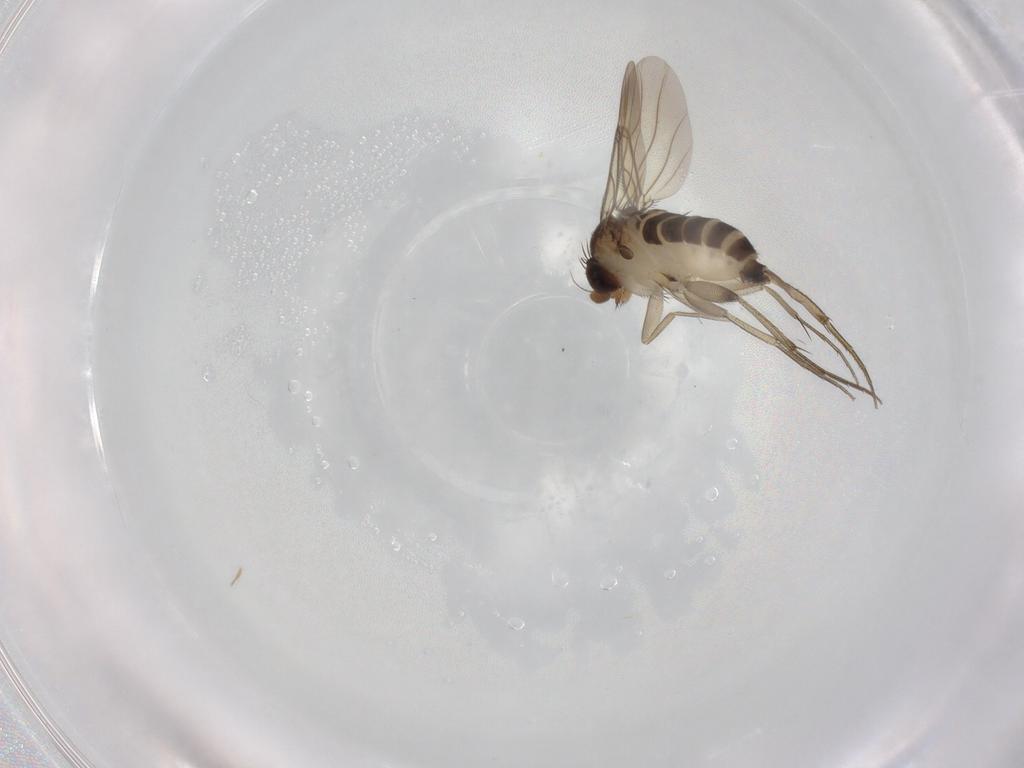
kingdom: Animalia
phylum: Arthropoda
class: Insecta
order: Diptera
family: Phoridae
